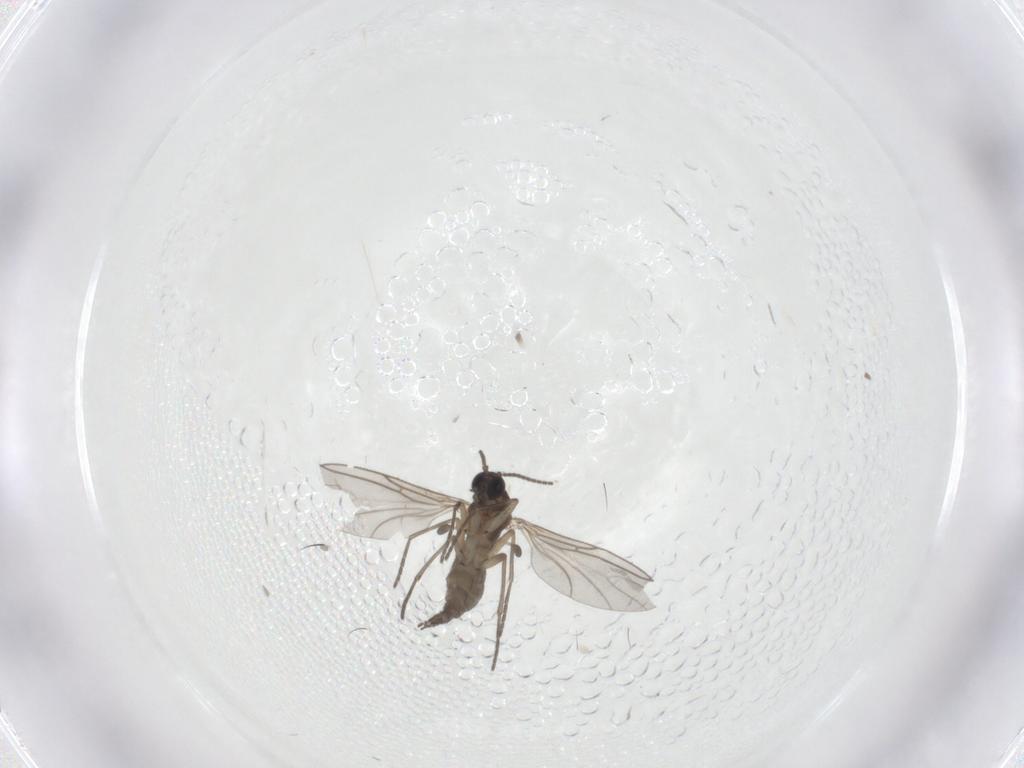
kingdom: Animalia
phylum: Arthropoda
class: Insecta
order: Diptera
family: Sciaridae
